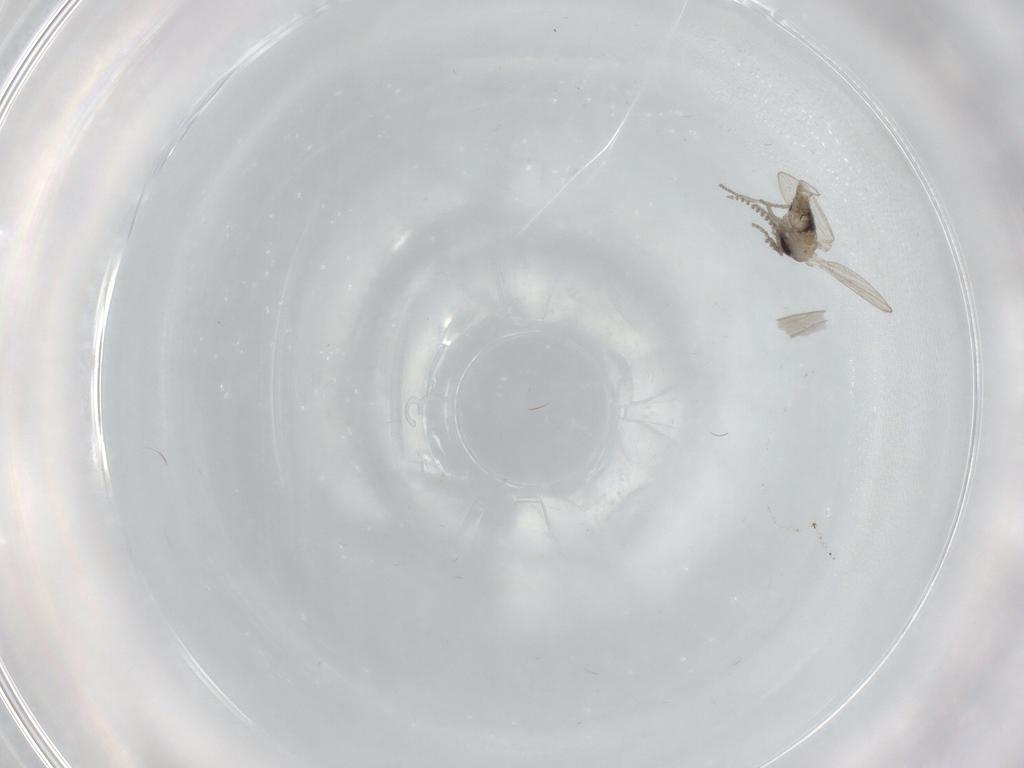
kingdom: Animalia
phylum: Arthropoda
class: Insecta
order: Diptera
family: Psychodidae
